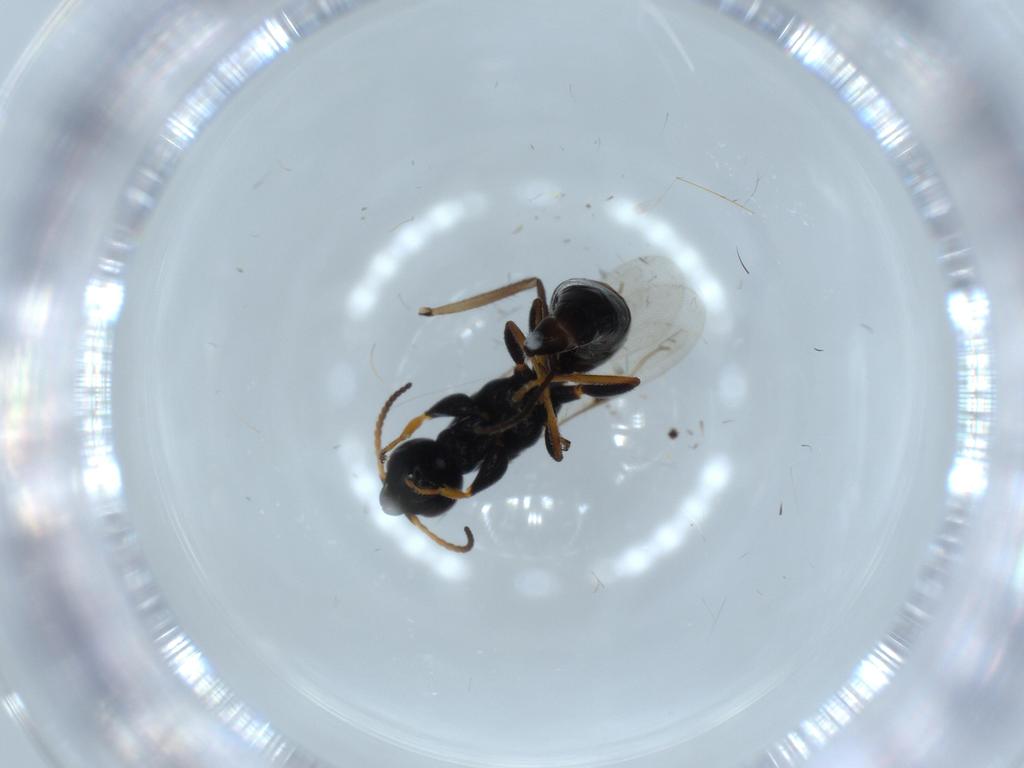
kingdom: Animalia
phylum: Arthropoda
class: Insecta
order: Hymenoptera
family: Bethylidae
